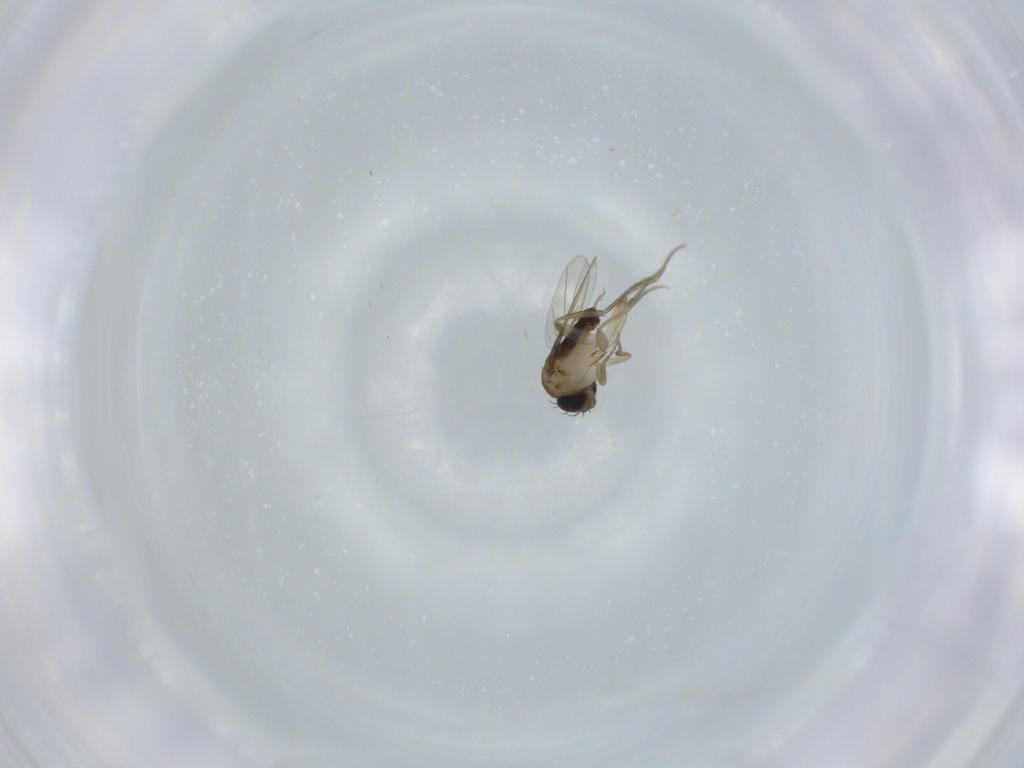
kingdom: Animalia
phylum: Arthropoda
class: Insecta
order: Diptera
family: Phoridae
